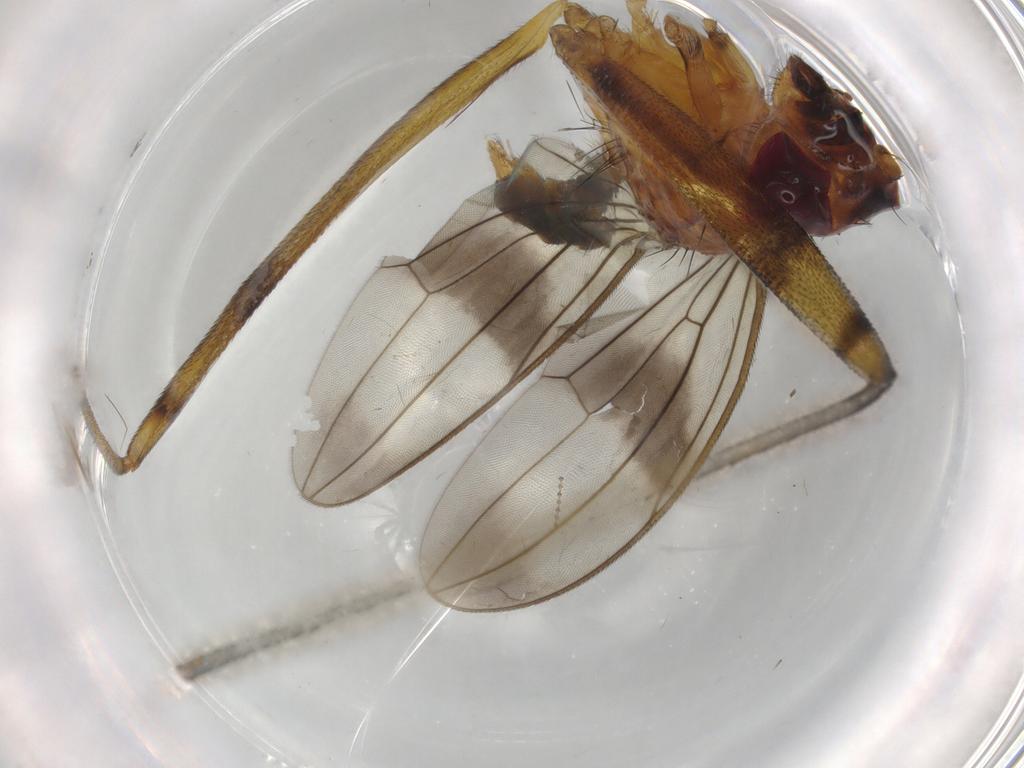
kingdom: Animalia
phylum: Arthropoda
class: Insecta
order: Diptera
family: Micropezidae
